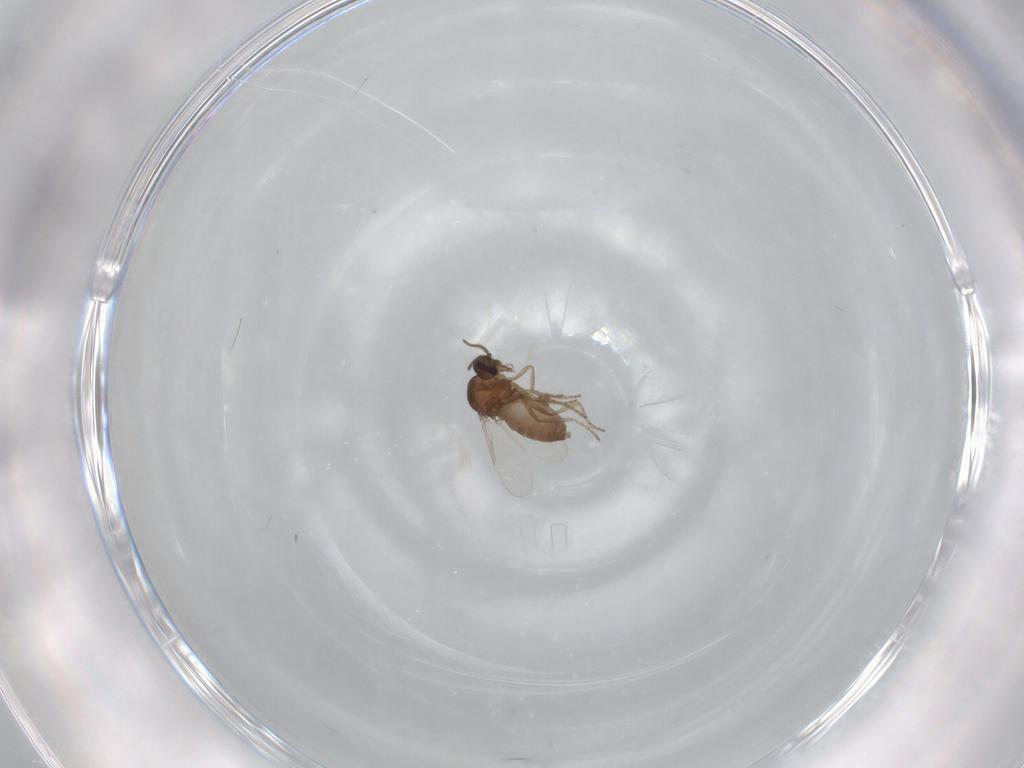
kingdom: Animalia
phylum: Arthropoda
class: Insecta
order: Diptera
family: Ceratopogonidae
